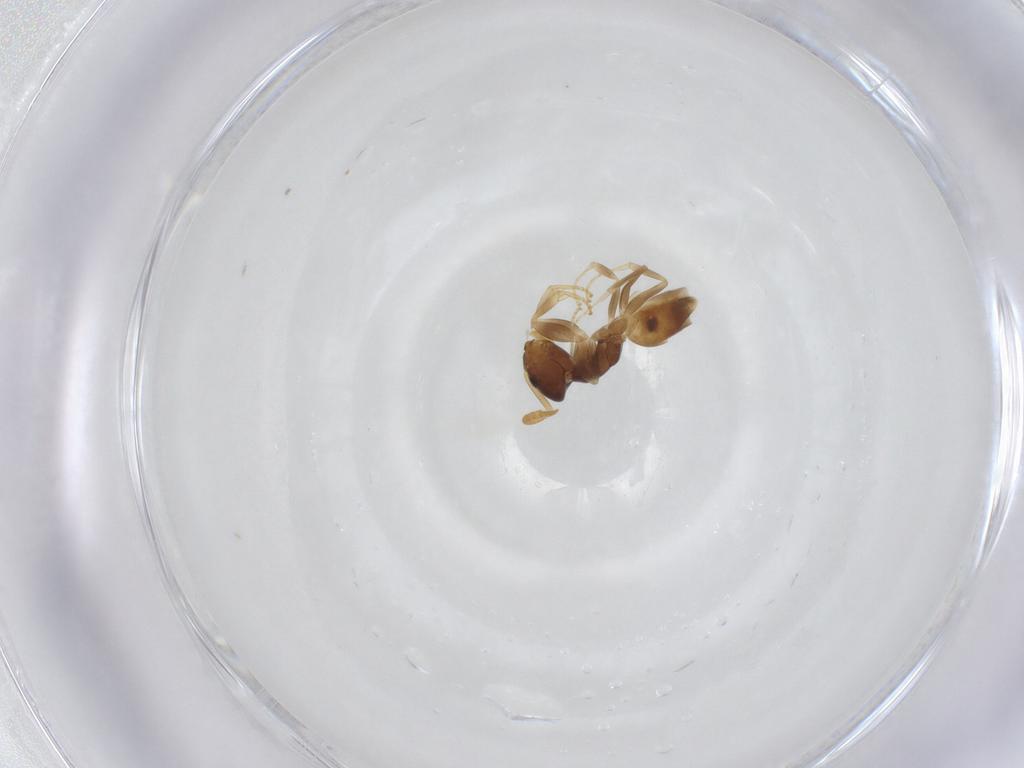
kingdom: Animalia
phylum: Arthropoda
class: Insecta
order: Hymenoptera
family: Formicidae
